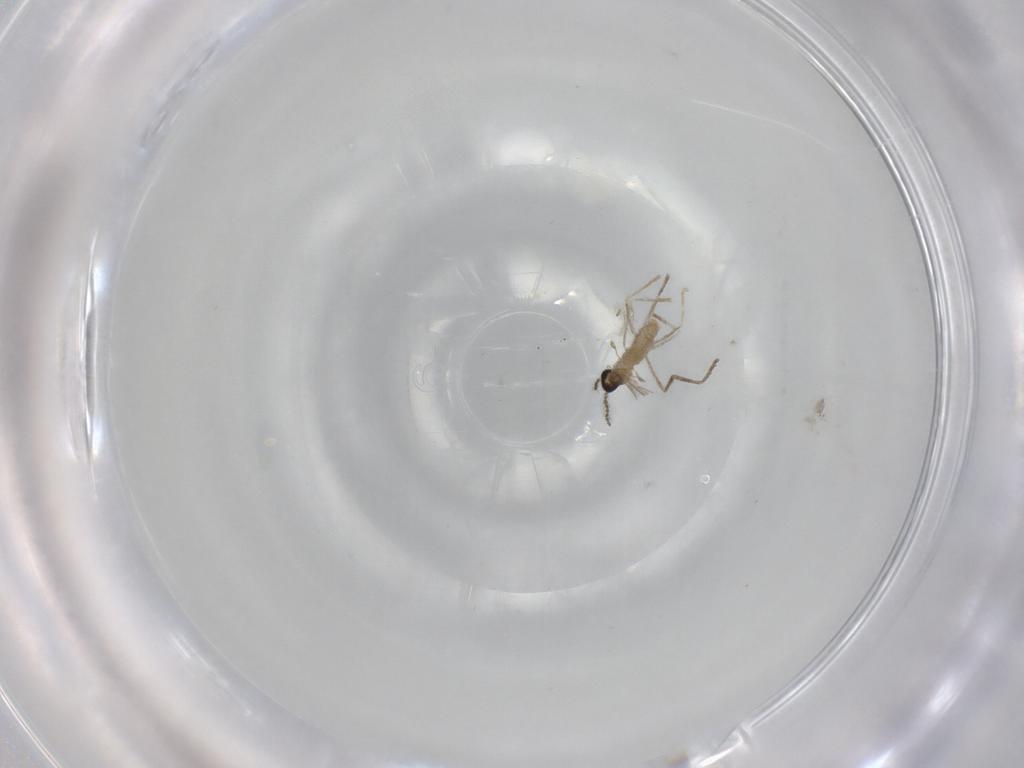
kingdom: Animalia
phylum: Arthropoda
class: Insecta
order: Diptera
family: Cecidomyiidae
